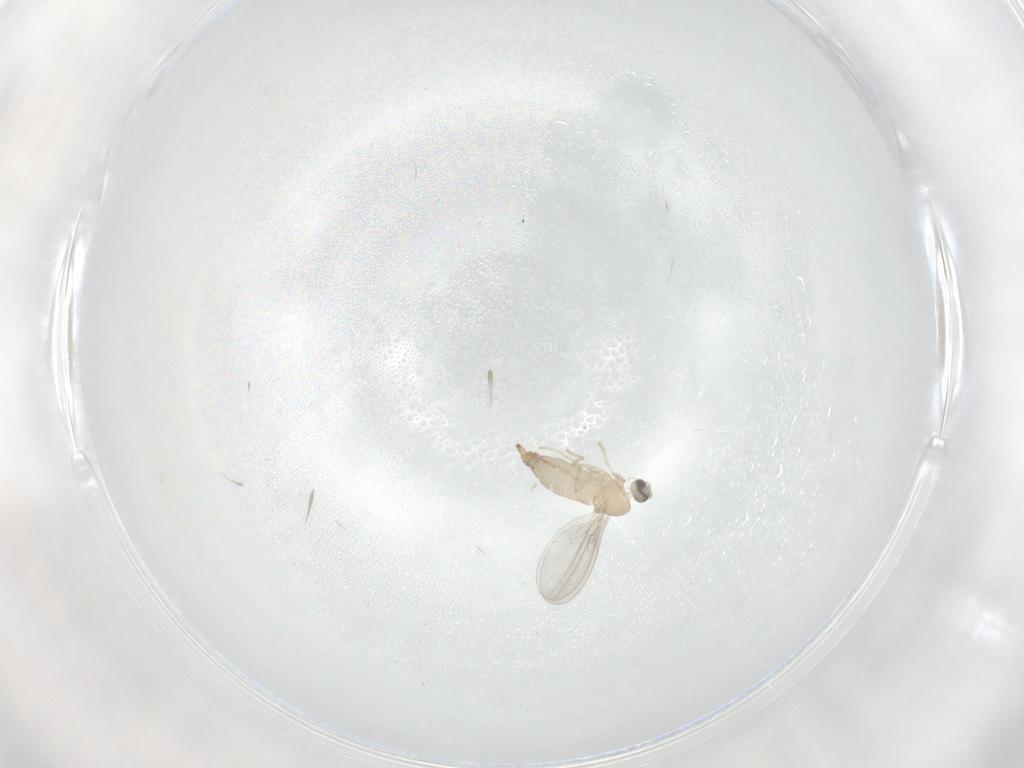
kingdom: Animalia
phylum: Arthropoda
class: Insecta
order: Diptera
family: Cecidomyiidae
